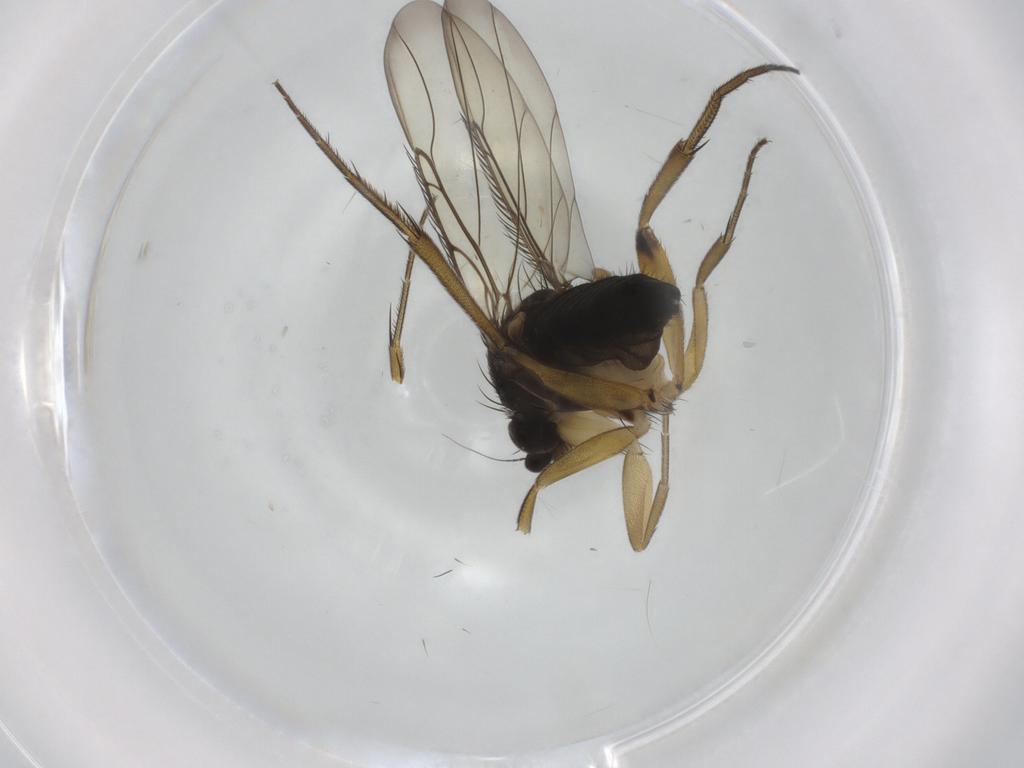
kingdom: Animalia
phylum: Arthropoda
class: Insecta
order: Diptera
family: Phoridae
